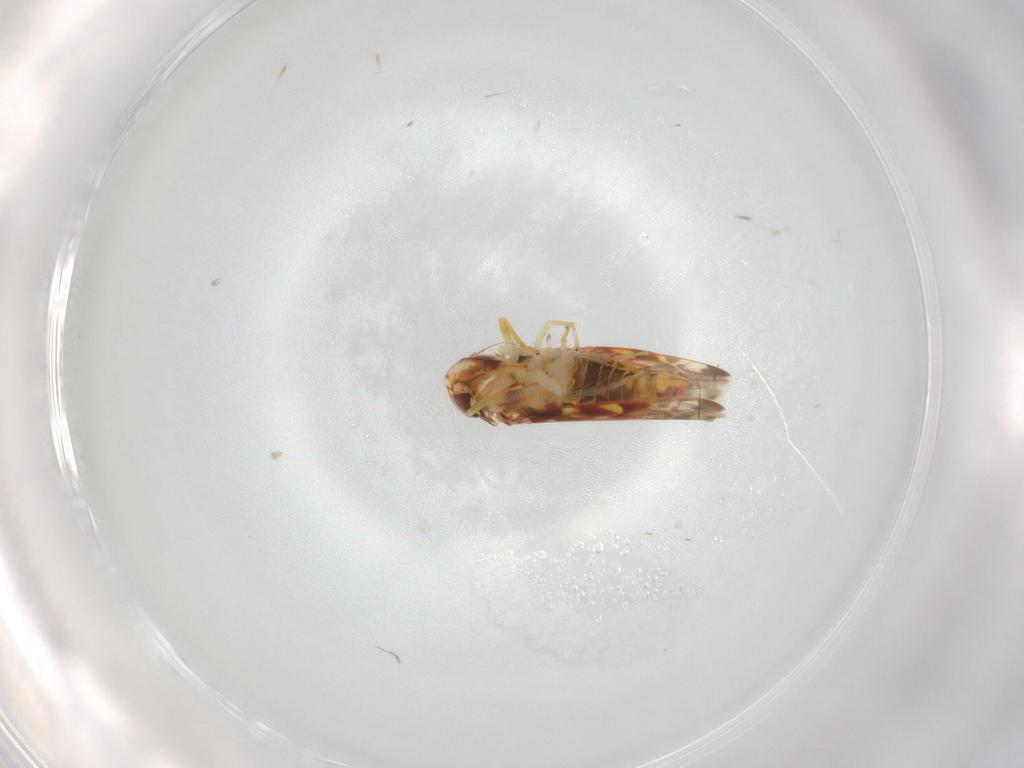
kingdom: Animalia
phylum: Arthropoda
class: Insecta
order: Hemiptera
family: Cicadellidae
